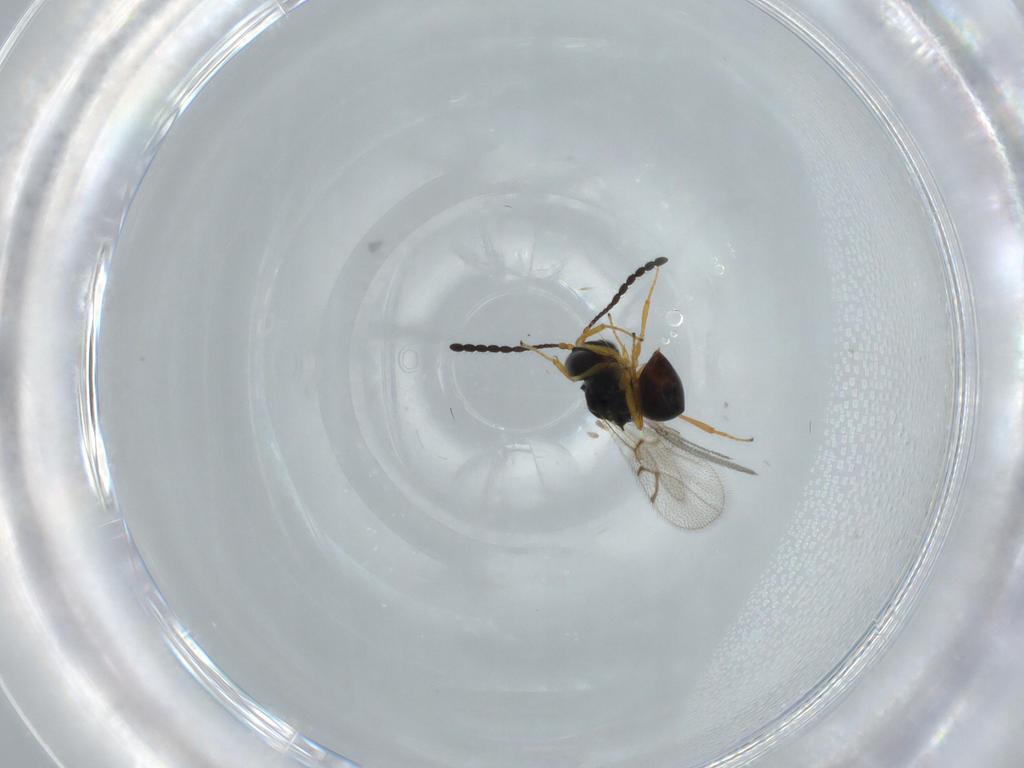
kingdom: Animalia
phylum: Arthropoda
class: Insecta
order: Hymenoptera
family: Figitidae
